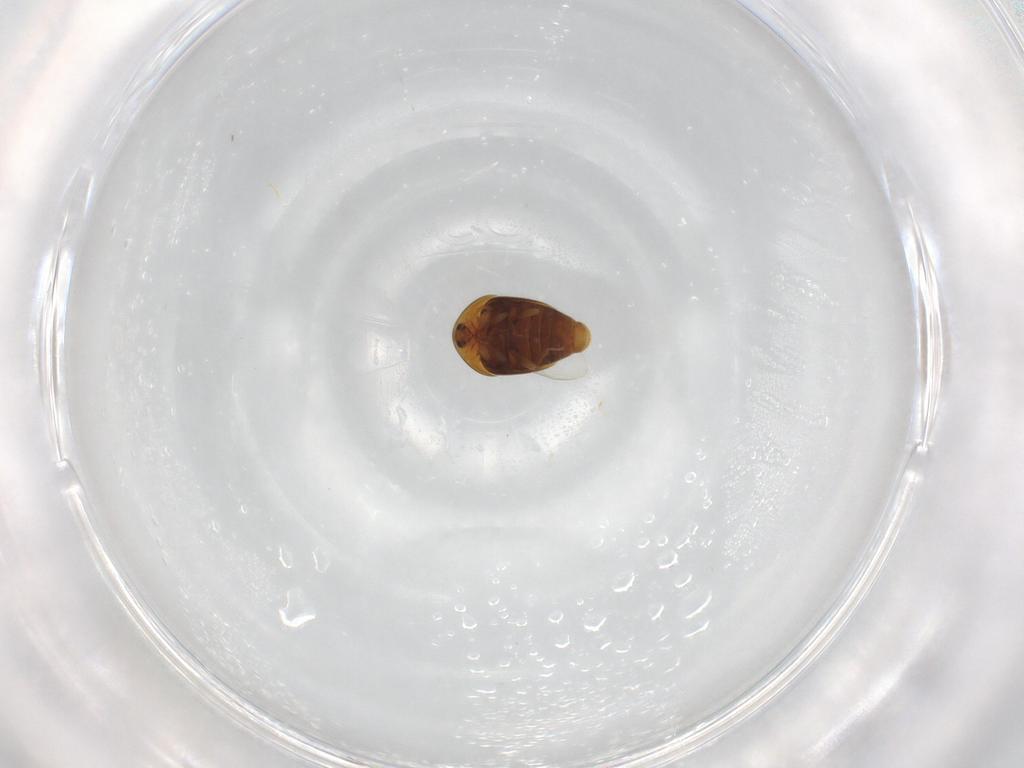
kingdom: Animalia
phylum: Arthropoda
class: Insecta
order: Coleoptera
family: Corylophidae
